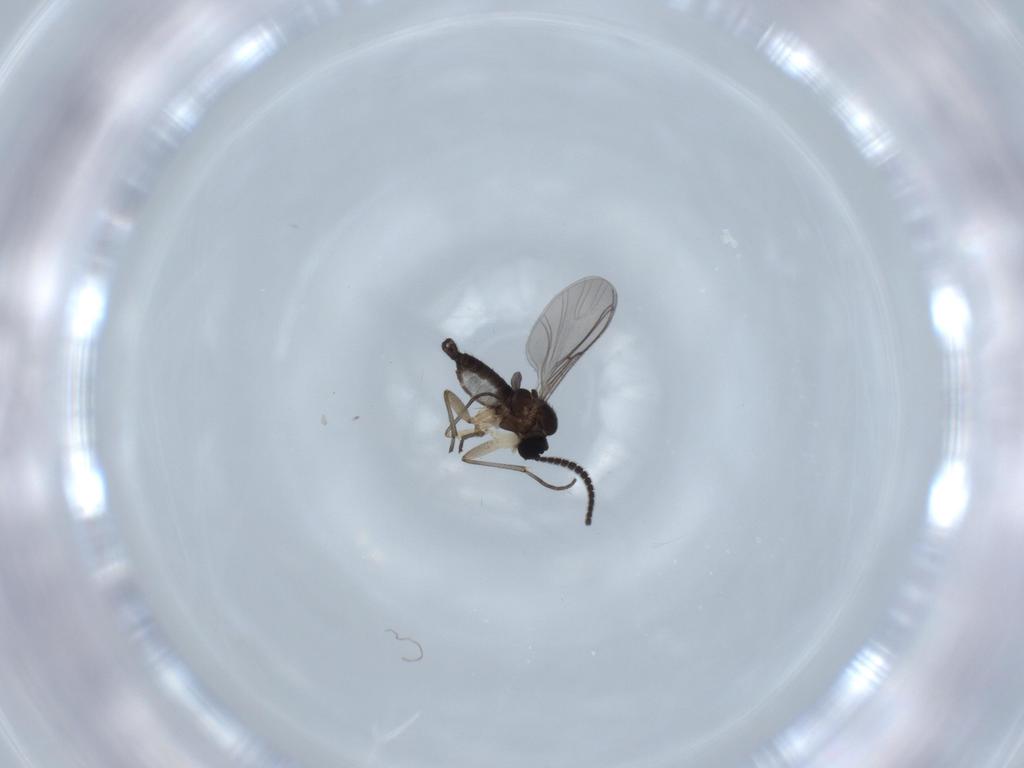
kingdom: Animalia
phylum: Arthropoda
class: Insecta
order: Diptera
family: Sciaridae
